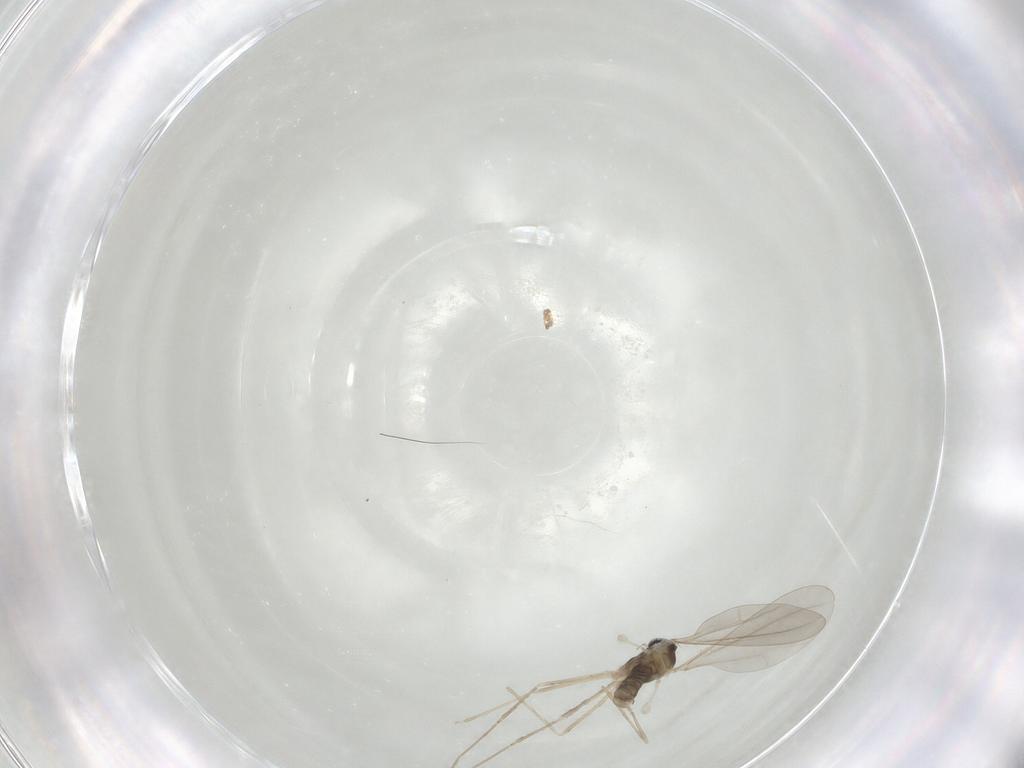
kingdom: Animalia
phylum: Arthropoda
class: Insecta
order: Diptera
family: Cecidomyiidae
